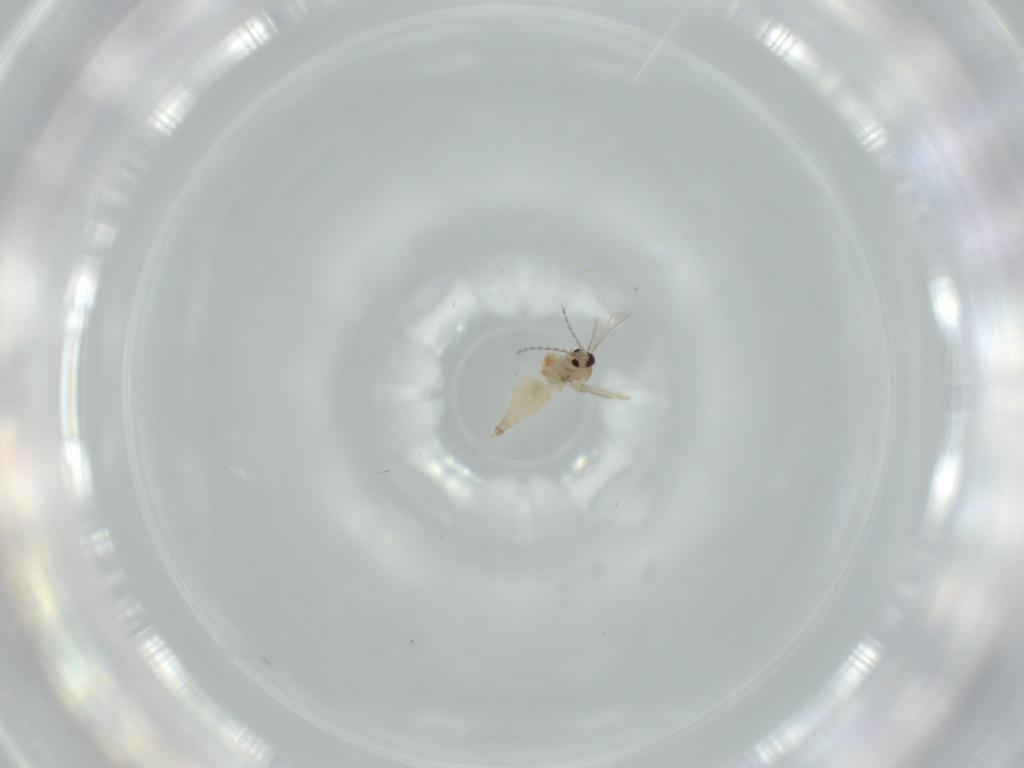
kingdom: Animalia
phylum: Arthropoda
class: Insecta
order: Diptera
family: Cecidomyiidae
